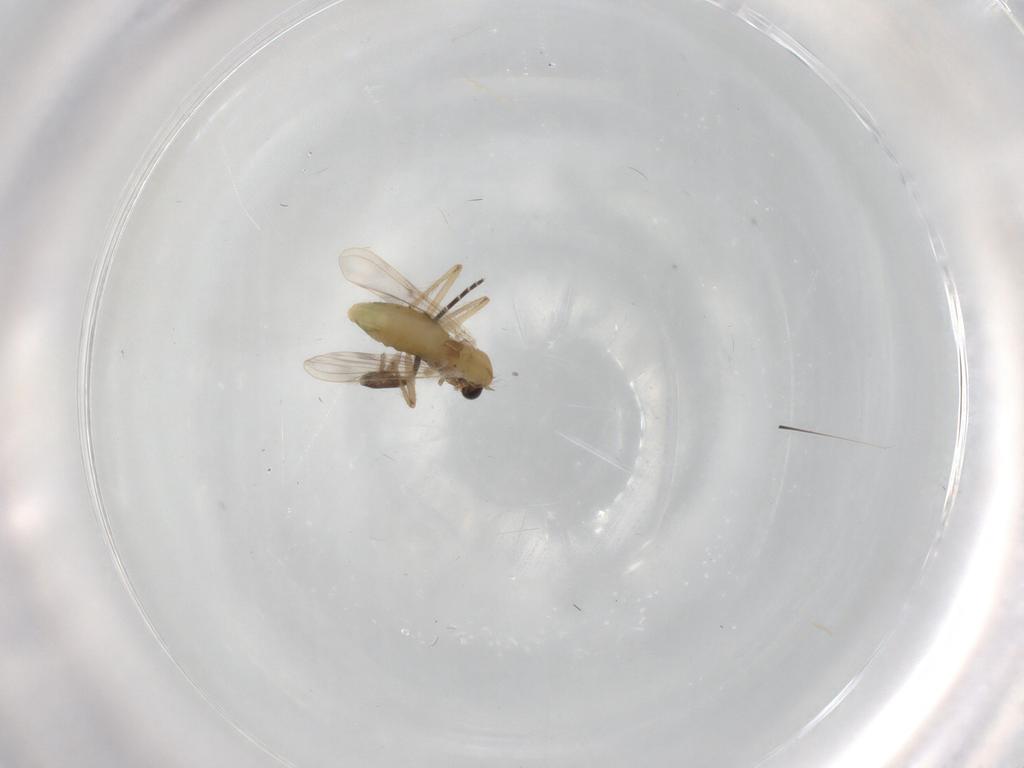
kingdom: Animalia
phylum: Arthropoda
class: Insecta
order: Diptera
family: Chironomidae
